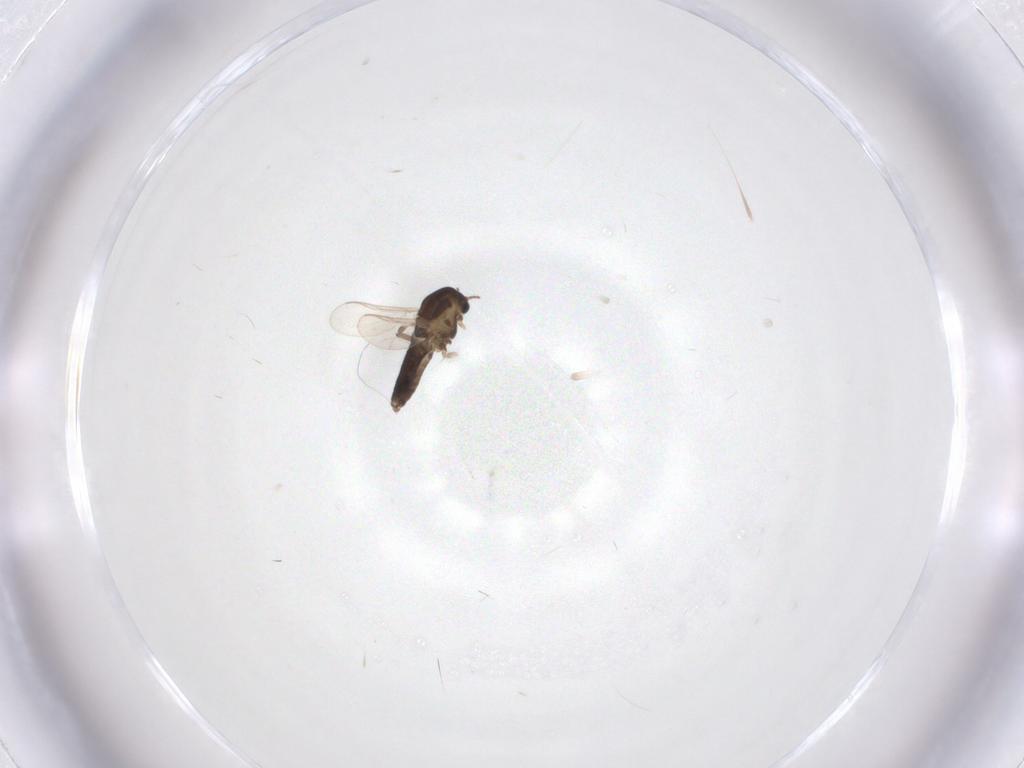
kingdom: Animalia
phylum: Arthropoda
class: Insecta
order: Diptera
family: Chironomidae
